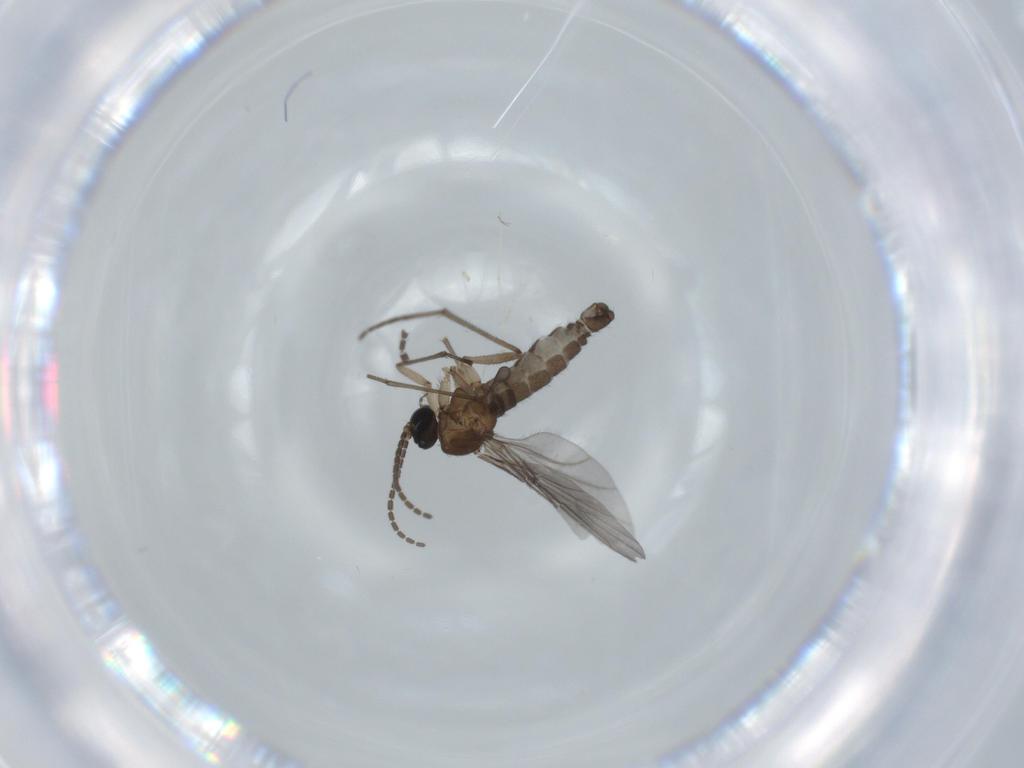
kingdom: Animalia
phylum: Arthropoda
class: Insecta
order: Diptera
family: Cecidomyiidae
